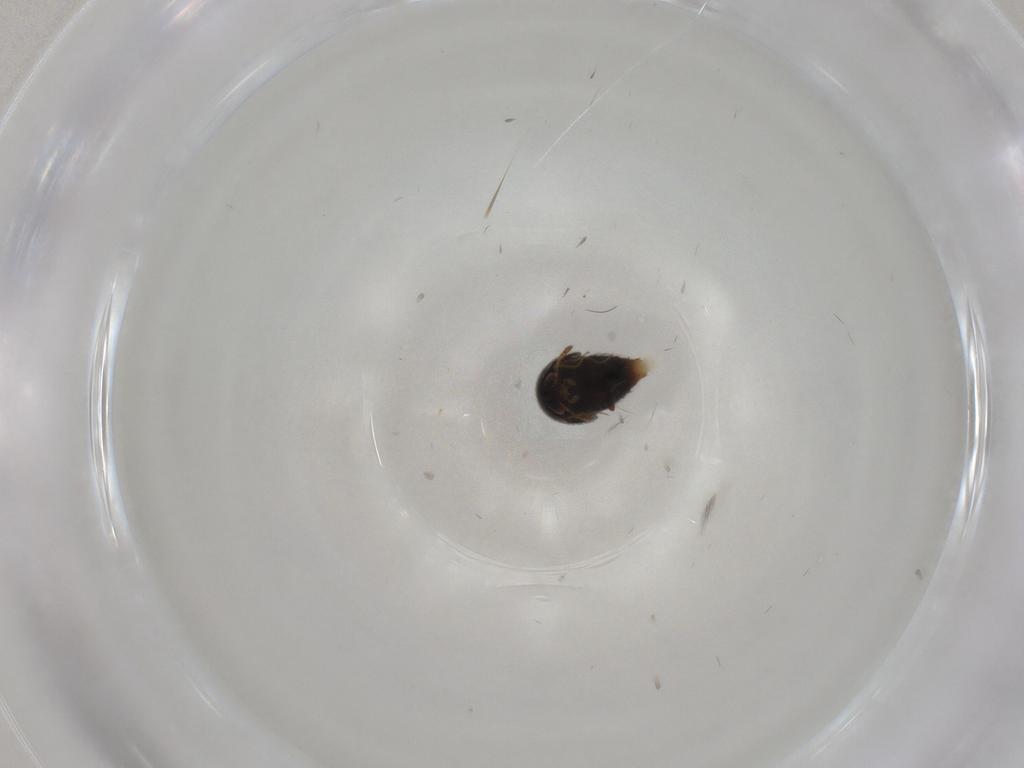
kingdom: Animalia
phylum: Arthropoda
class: Insecta
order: Coleoptera
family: Staphylinidae
